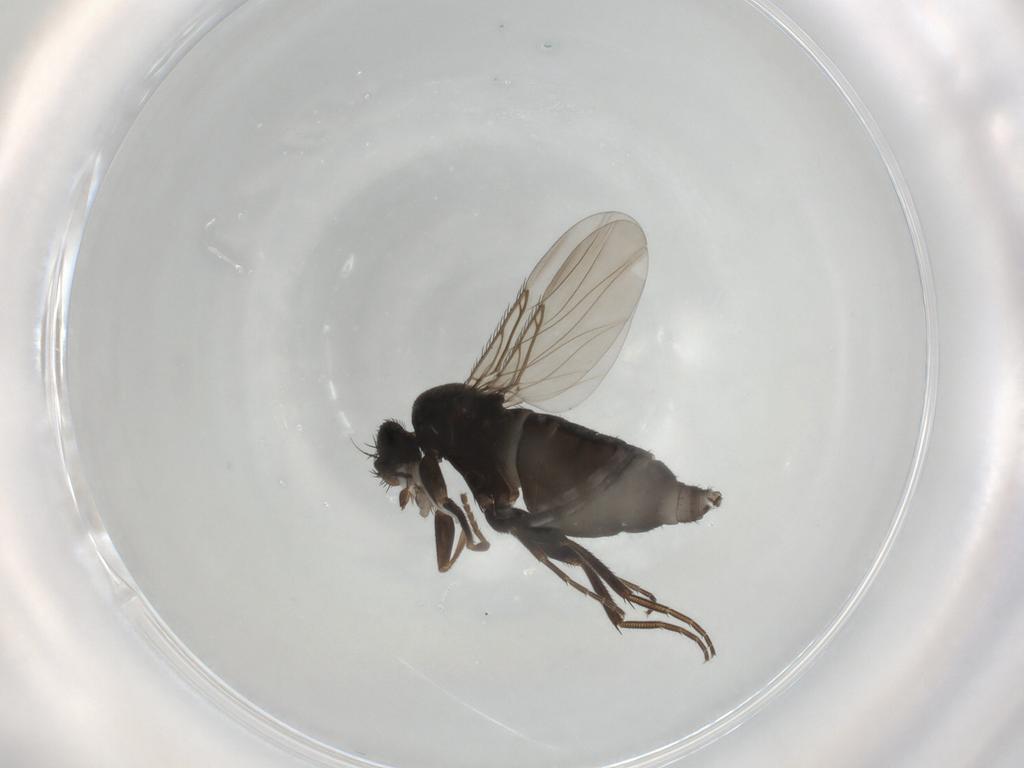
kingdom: Animalia
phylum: Arthropoda
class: Insecta
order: Diptera
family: Phoridae
